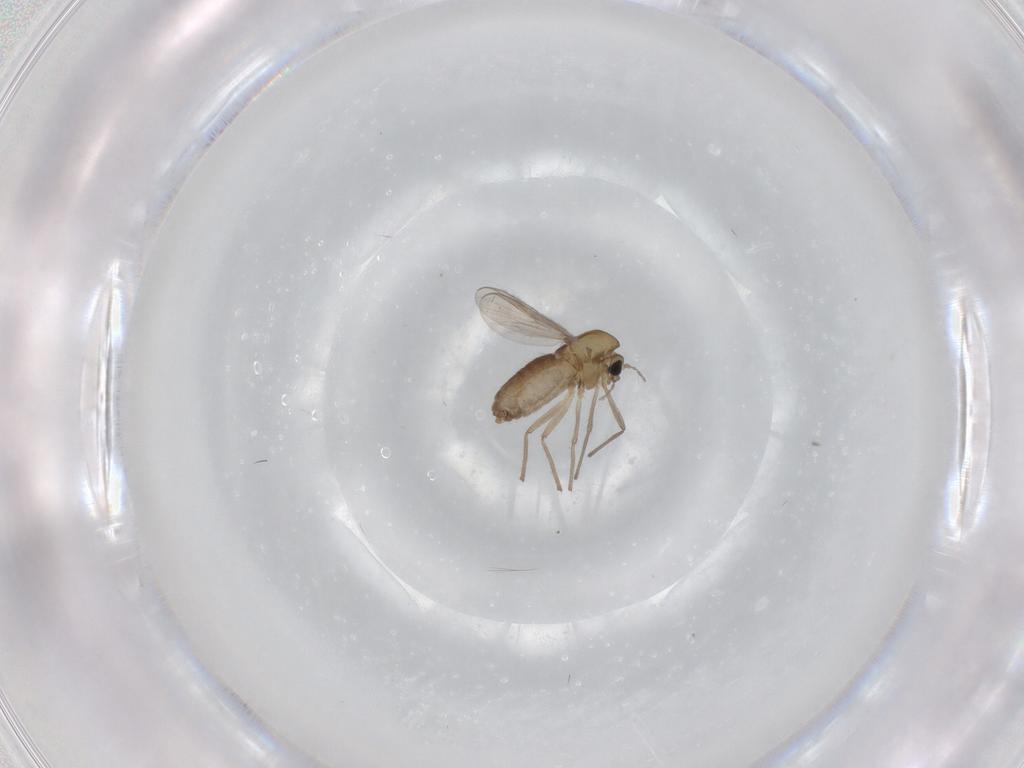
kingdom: Animalia
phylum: Arthropoda
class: Insecta
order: Diptera
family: Chironomidae
